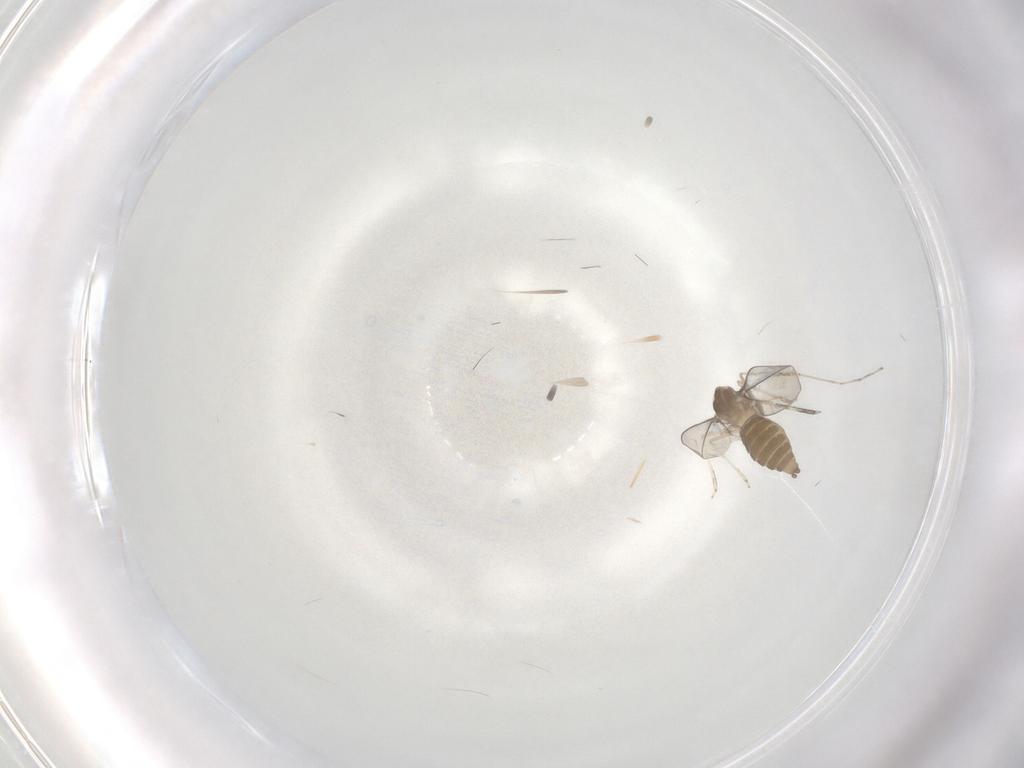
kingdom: Animalia
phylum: Arthropoda
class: Insecta
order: Diptera
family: Cecidomyiidae
